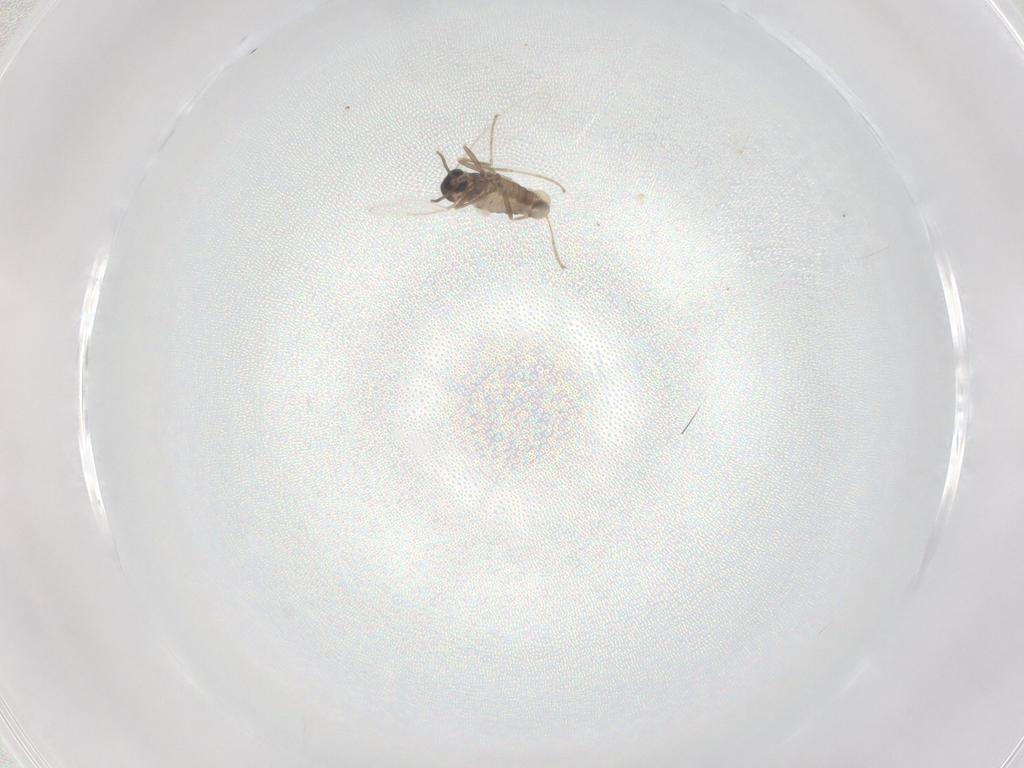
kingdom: Animalia
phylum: Arthropoda
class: Insecta
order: Diptera
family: Cecidomyiidae
